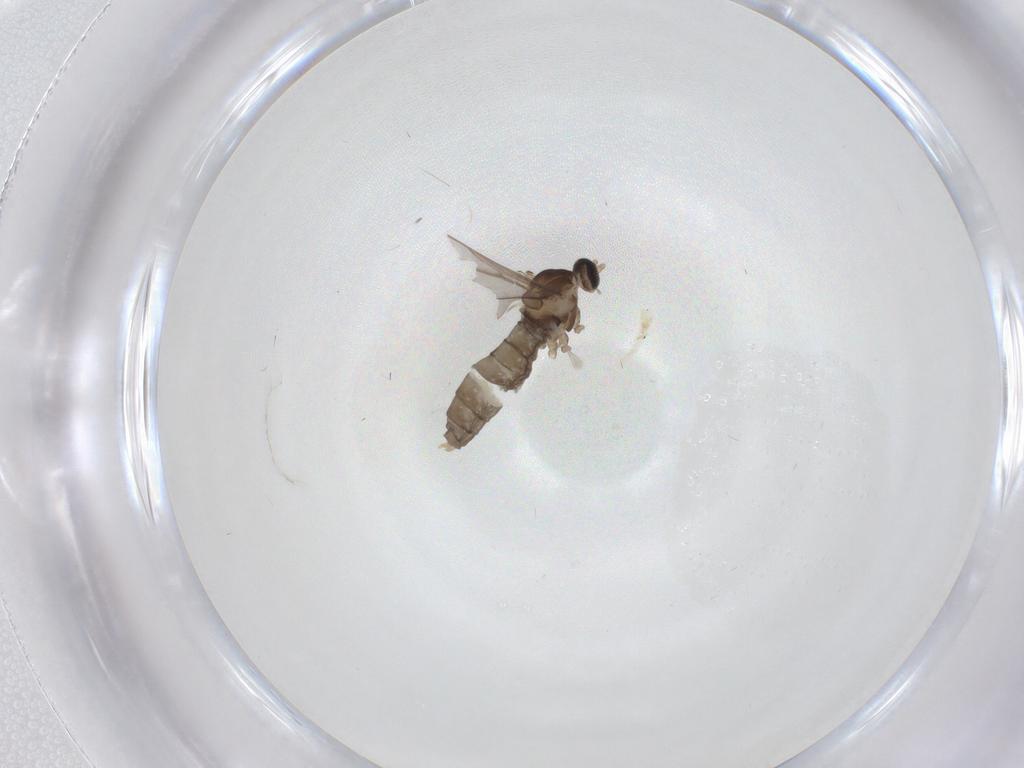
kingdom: Animalia
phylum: Arthropoda
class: Insecta
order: Diptera
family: Cecidomyiidae
